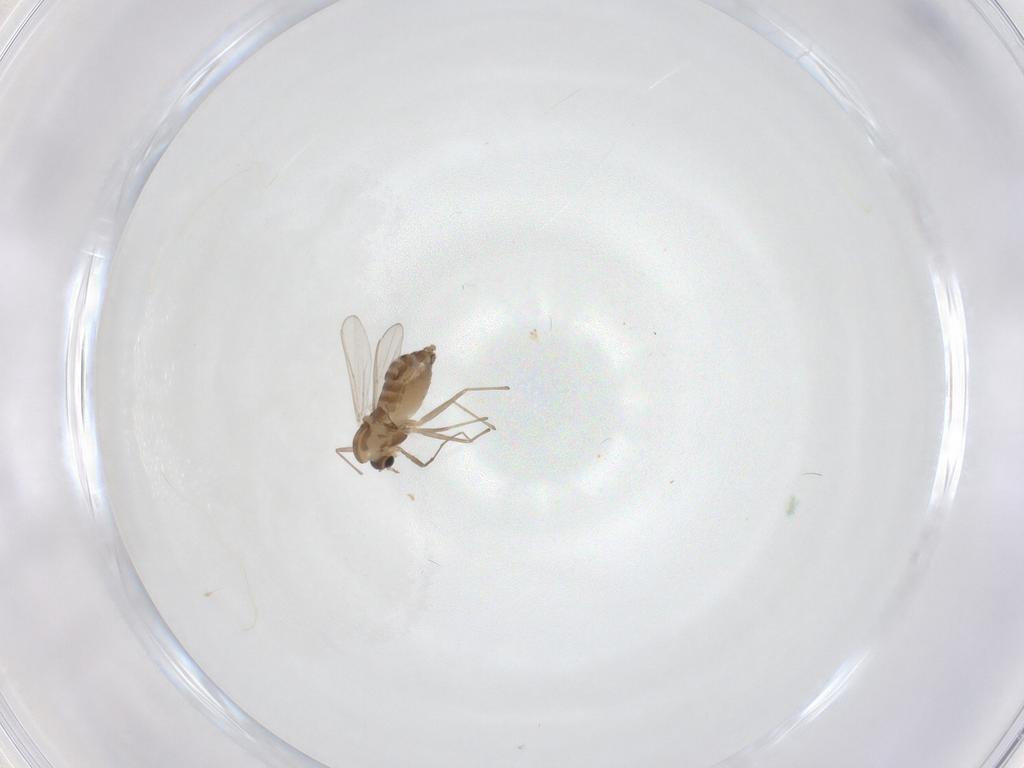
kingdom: Animalia
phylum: Arthropoda
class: Insecta
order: Diptera
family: Chironomidae
